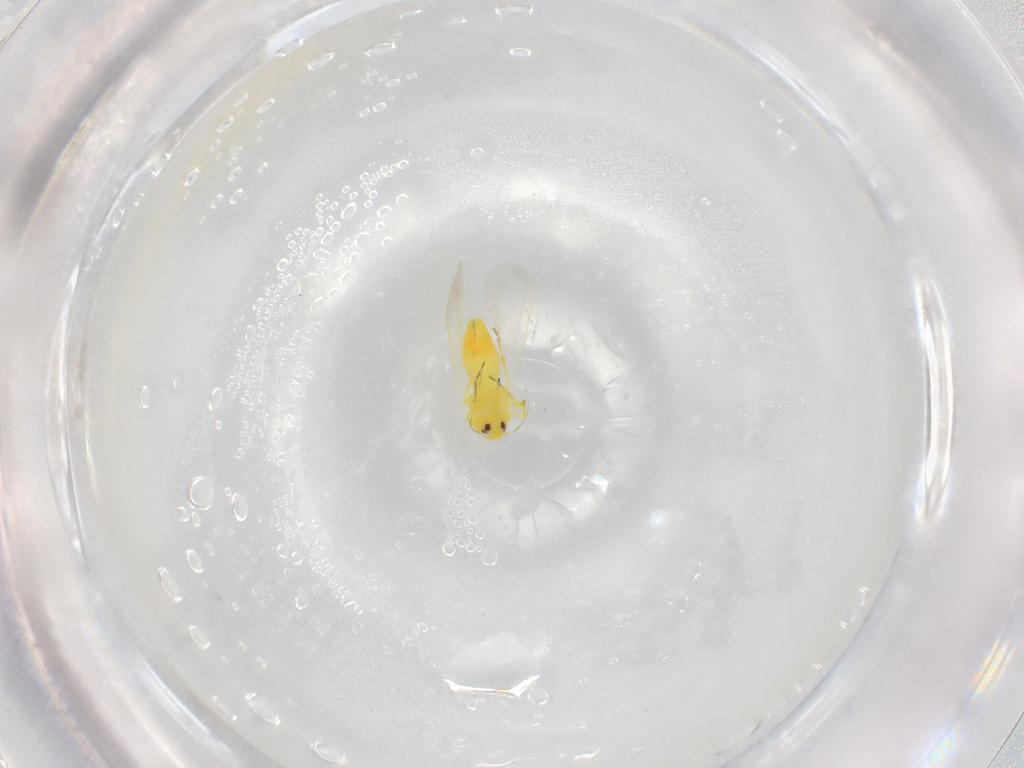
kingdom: Animalia
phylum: Arthropoda
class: Insecta
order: Hemiptera
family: Aleyrodidae
